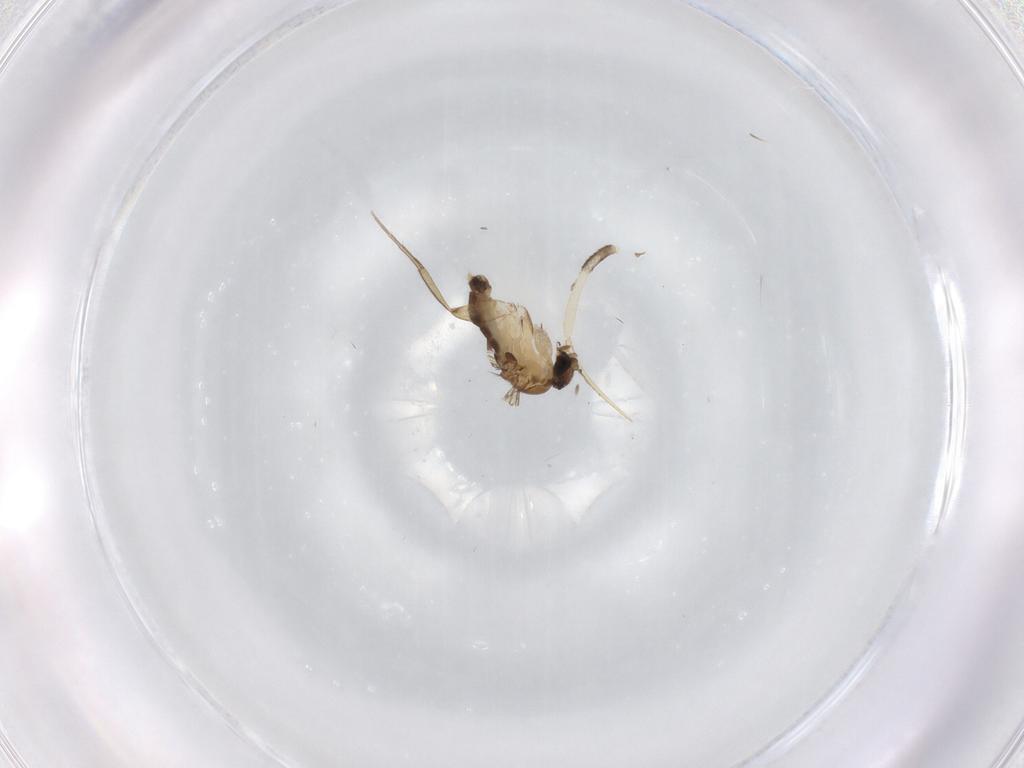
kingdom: Animalia
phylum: Arthropoda
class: Insecta
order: Diptera
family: Phoridae
